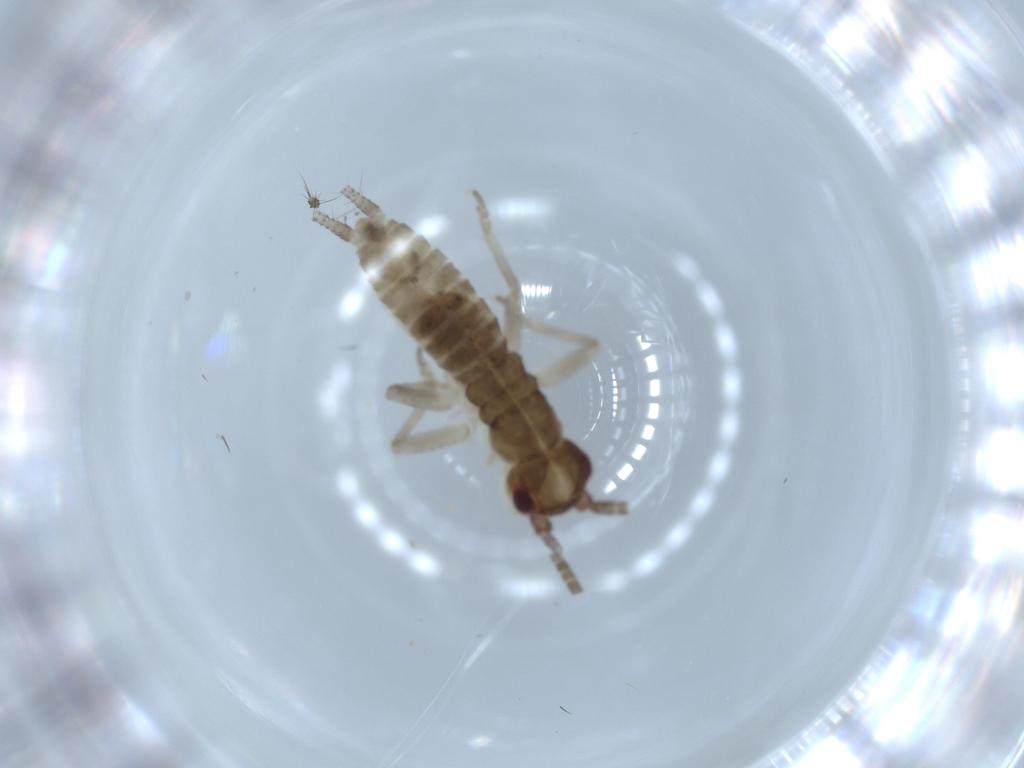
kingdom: Animalia
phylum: Arthropoda
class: Insecta
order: Orthoptera
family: Gryllidae
